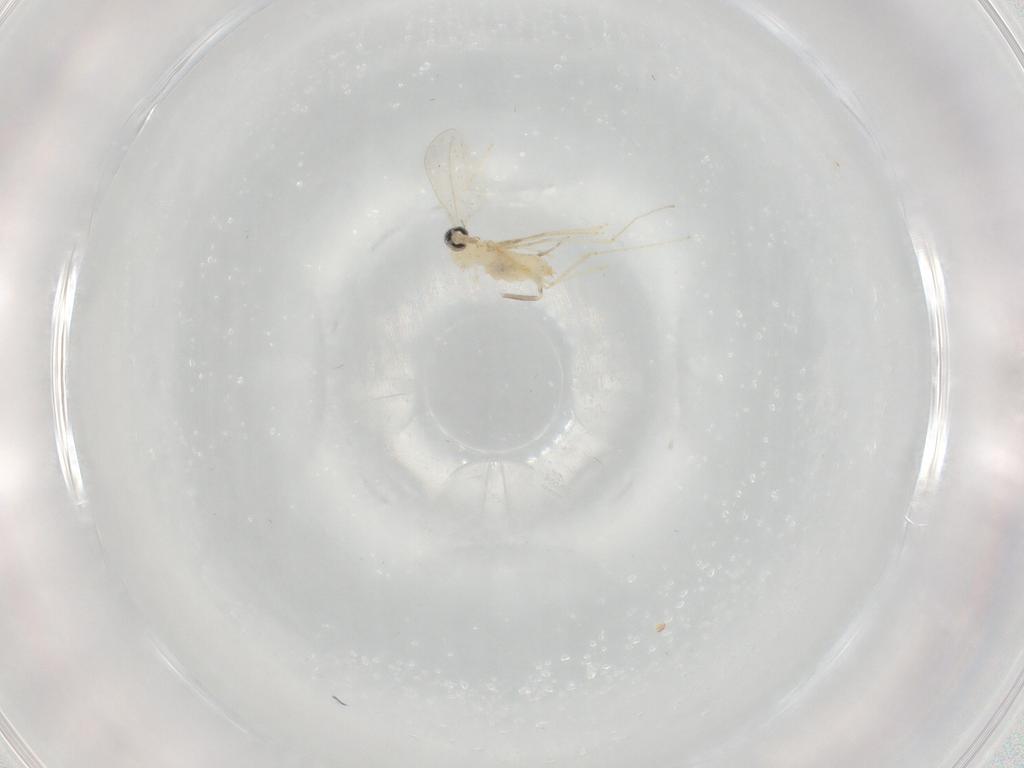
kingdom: Animalia
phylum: Arthropoda
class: Insecta
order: Diptera
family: Cecidomyiidae
